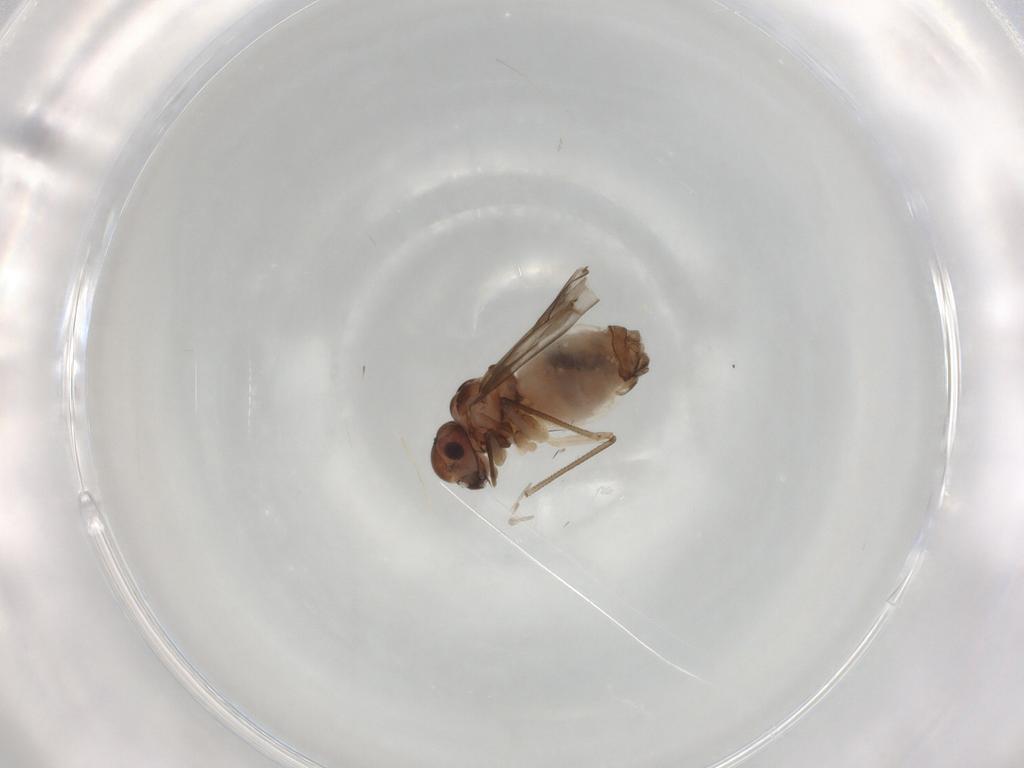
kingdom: Animalia
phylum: Arthropoda
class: Insecta
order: Psocodea
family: Peripsocidae
